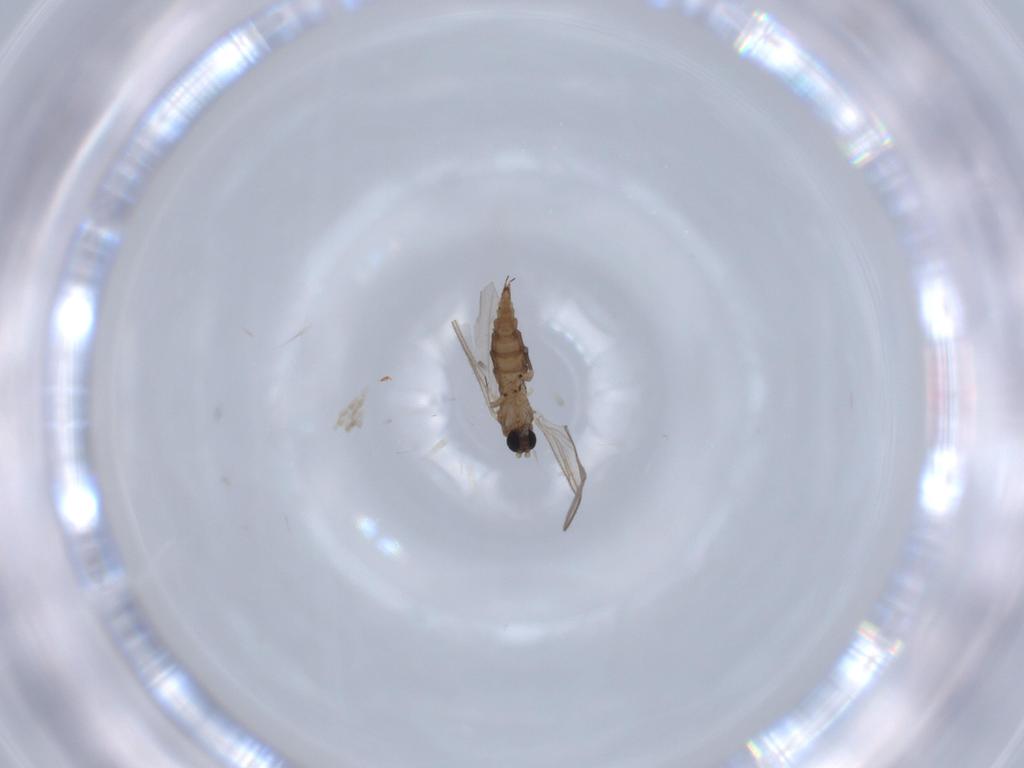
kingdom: Animalia
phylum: Arthropoda
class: Insecta
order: Diptera
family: Sciaridae
